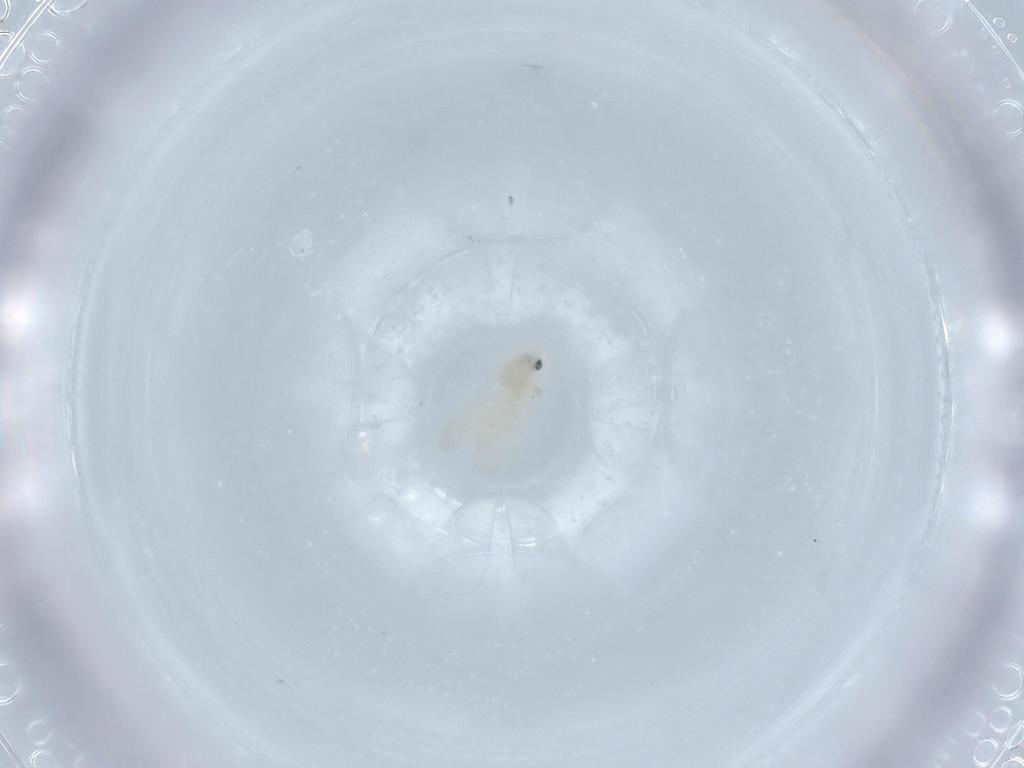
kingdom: Animalia
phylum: Arthropoda
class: Insecta
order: Hemiptera
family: Aleyrodidae
